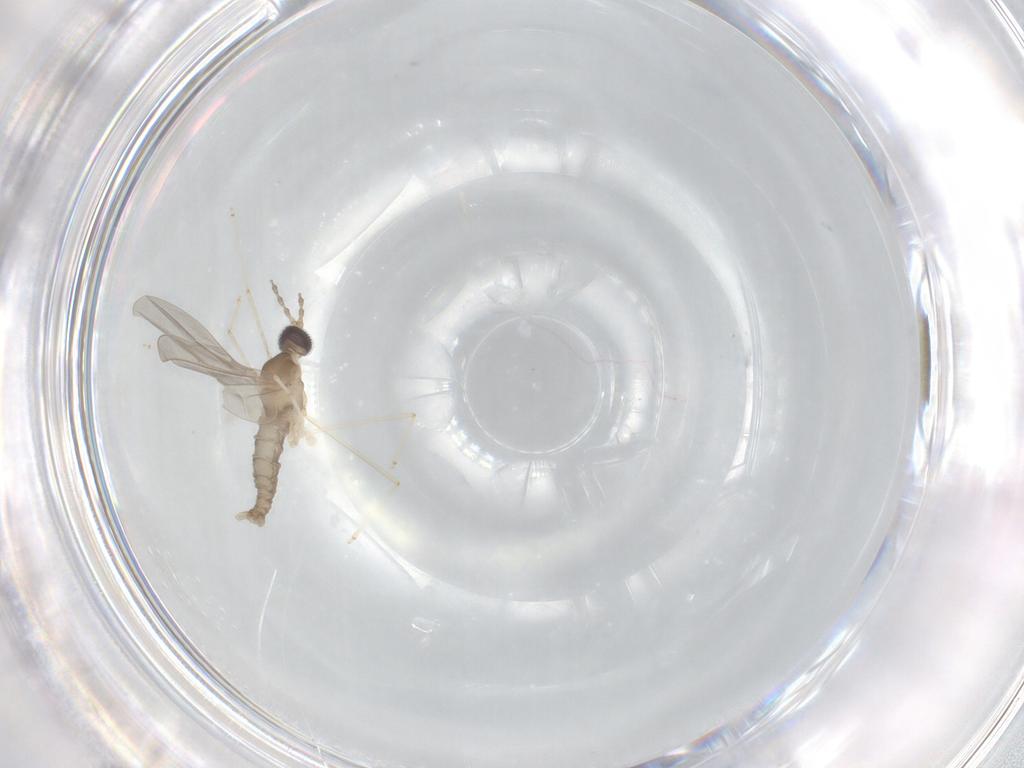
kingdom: Animalia
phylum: Arthropoda
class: Insecta
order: Diptera
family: Cecidomyiidae
